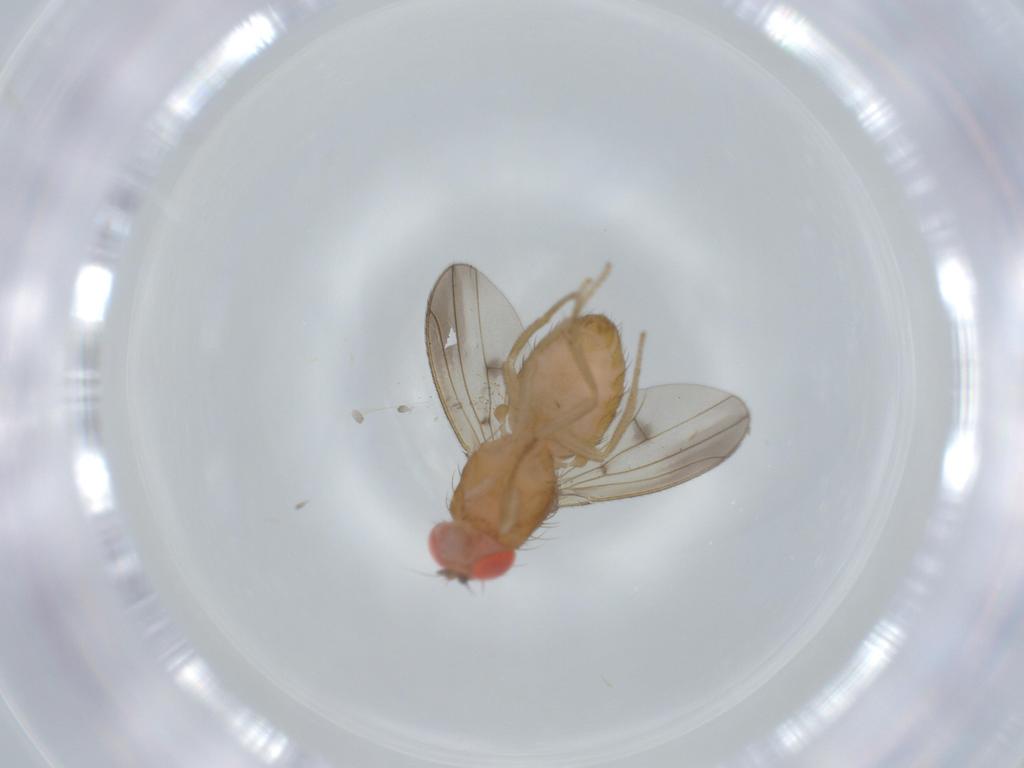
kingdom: Animalia
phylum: Arthropoda
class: Insecta
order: Diptera
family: Drosophilidae
